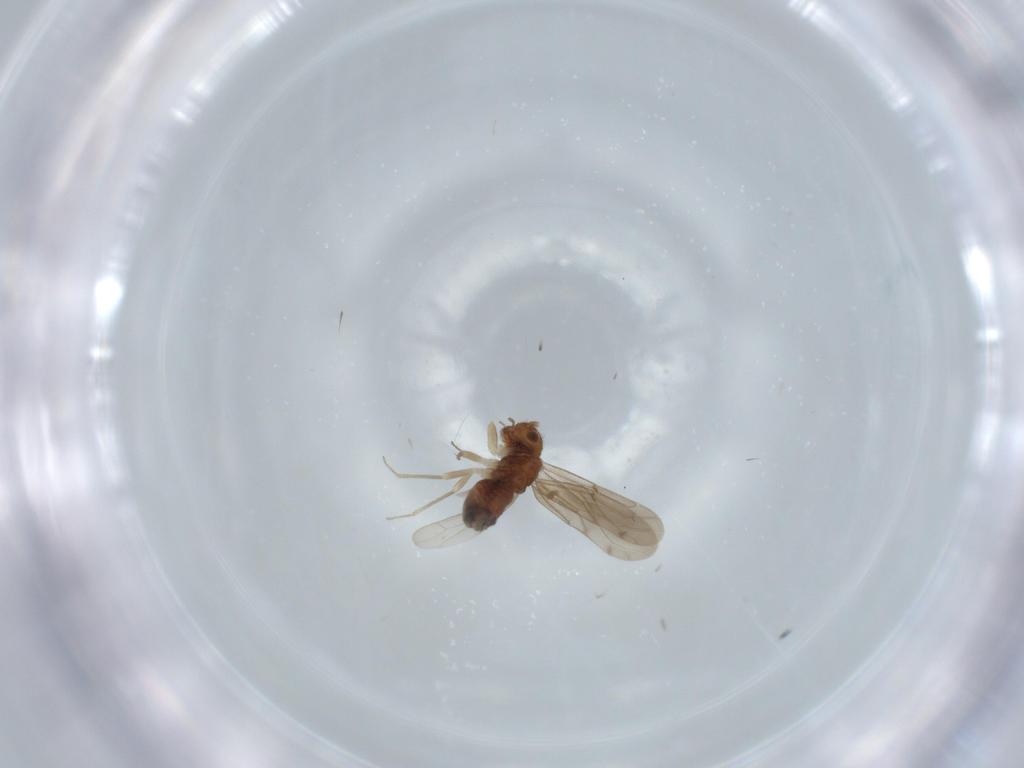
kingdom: Animalia
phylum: Arthropoda
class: Insecta
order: Psocodea
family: Ectopsocidae
